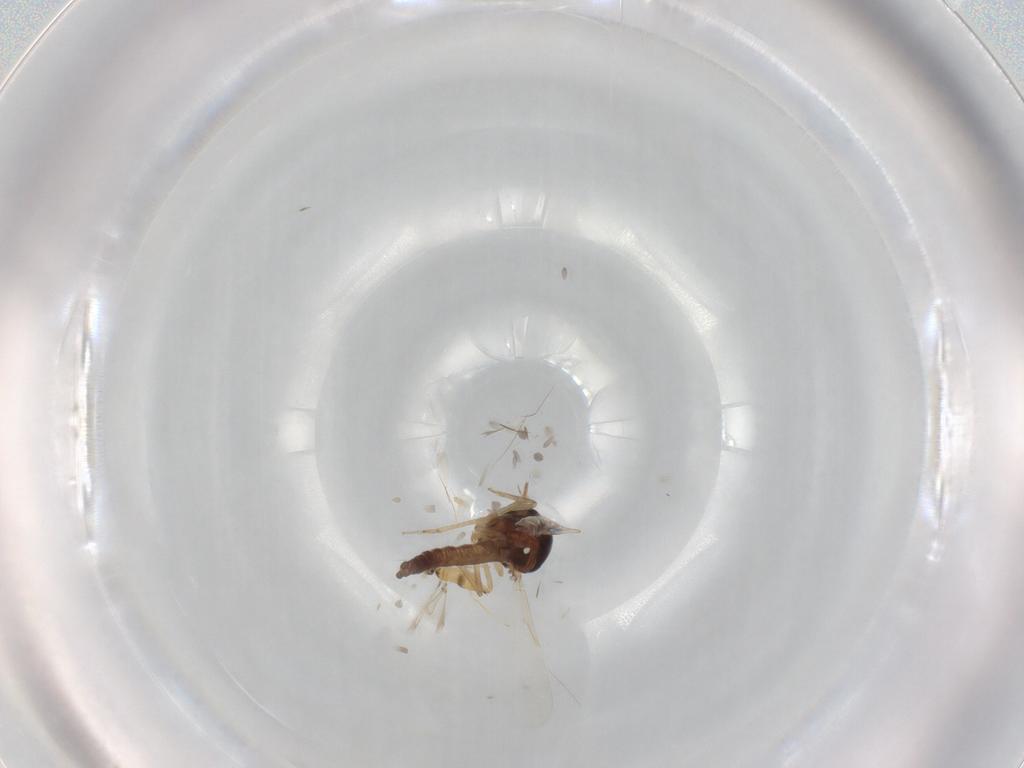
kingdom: Animalia
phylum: Arthropoda
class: Insecta
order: Diptera
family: Ceratopogonidae
